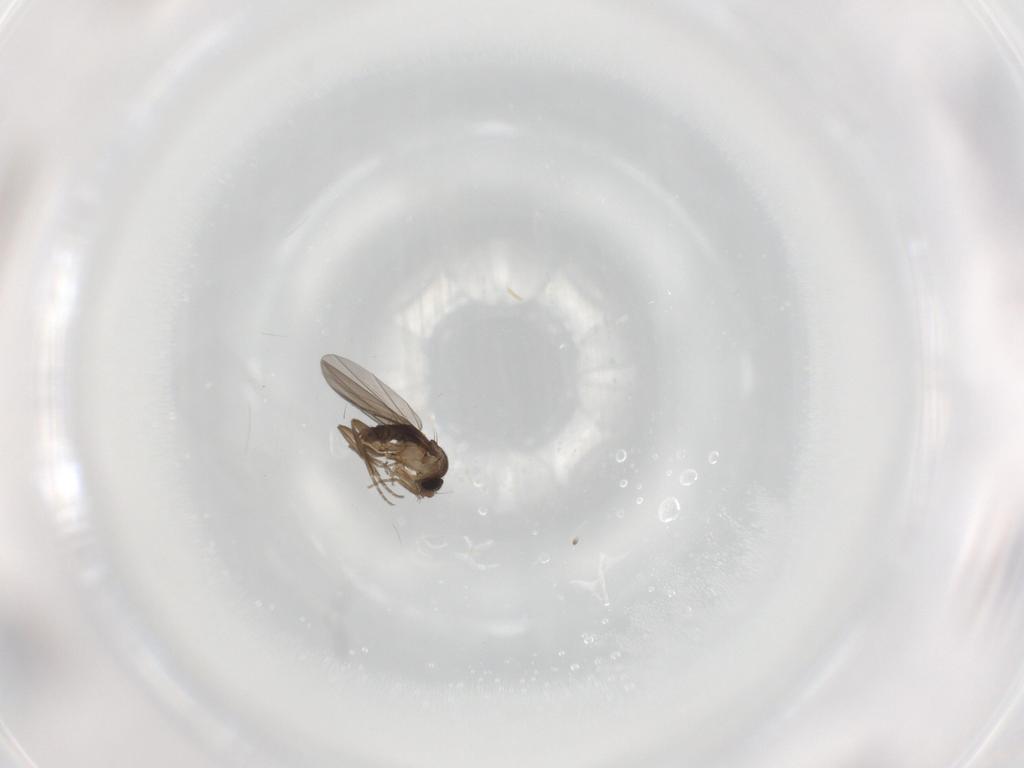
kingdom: Animalia
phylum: Arthropoda
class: Insecta
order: Diptera
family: Phoridae
